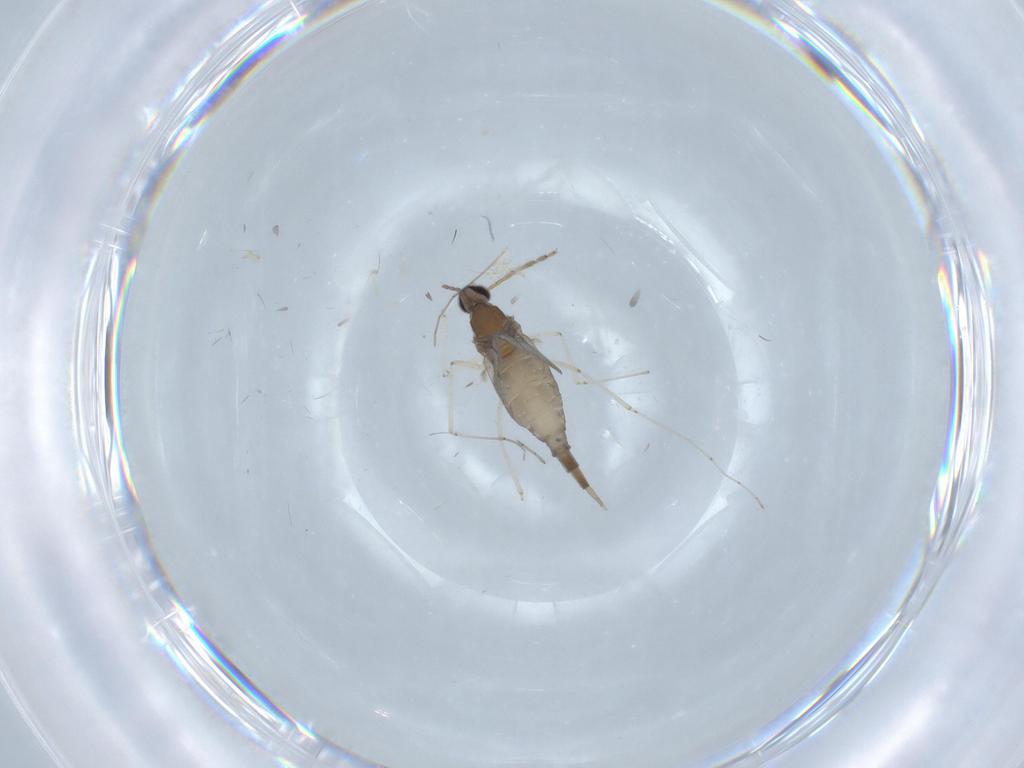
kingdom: Animalia
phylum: Arthropoda
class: Insecta
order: Diptera
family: Cecidomyiidae
